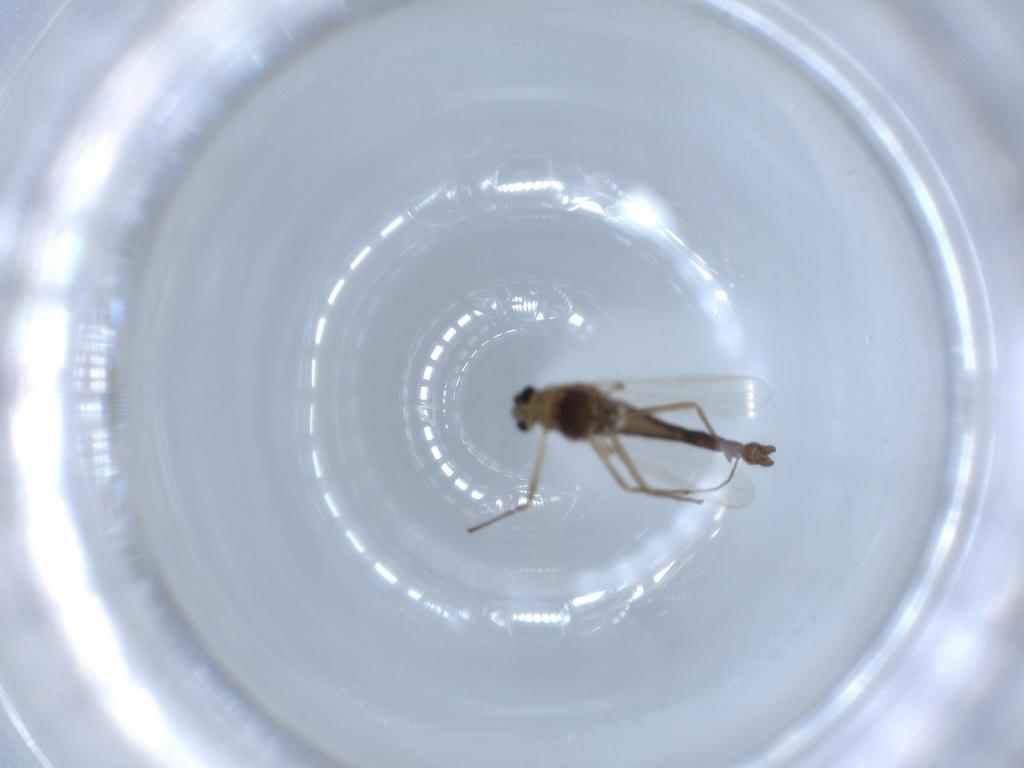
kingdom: Animalia
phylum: Arthropoda
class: Insecta
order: Diptera
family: Chironomidae
